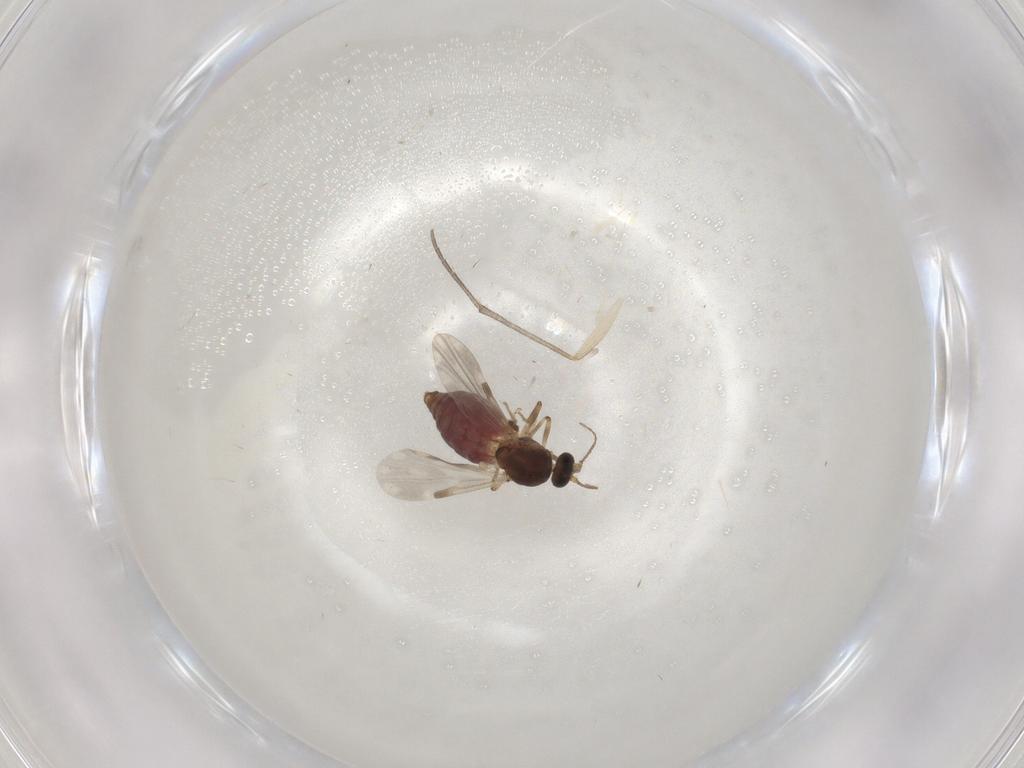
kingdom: Animalia
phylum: Arthropoda
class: Insecta
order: Diptera
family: Ceratopogonidae
